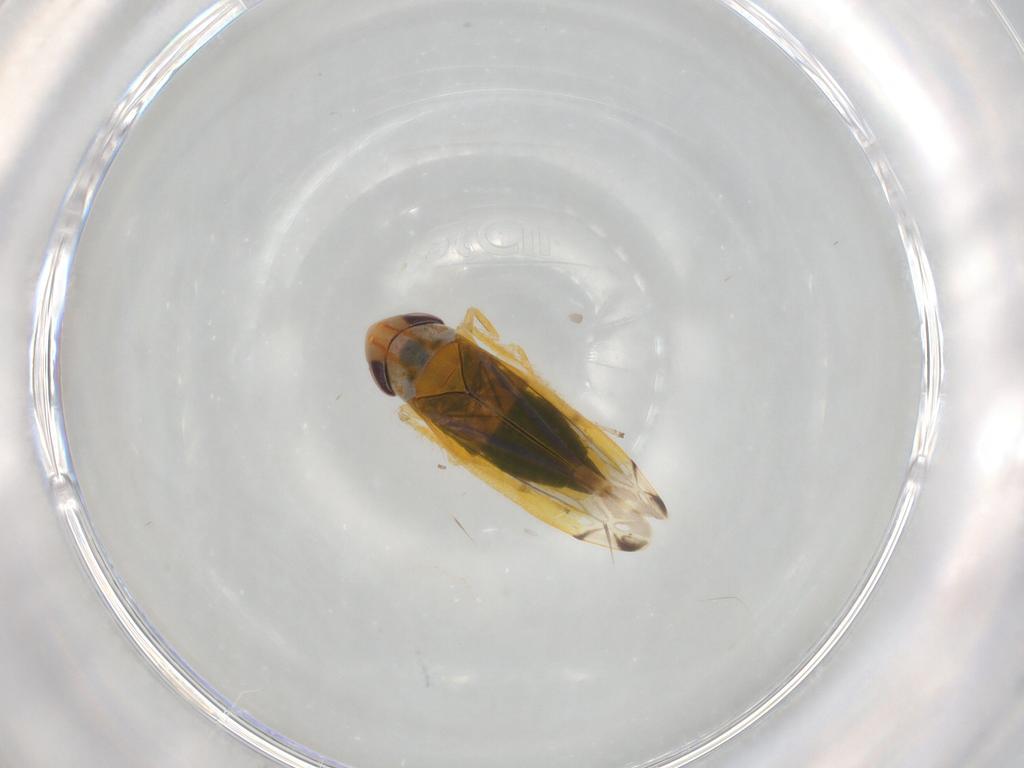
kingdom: Animalia
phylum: Arthropoda
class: Insecta
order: Hemiptera
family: Cicadellidae
